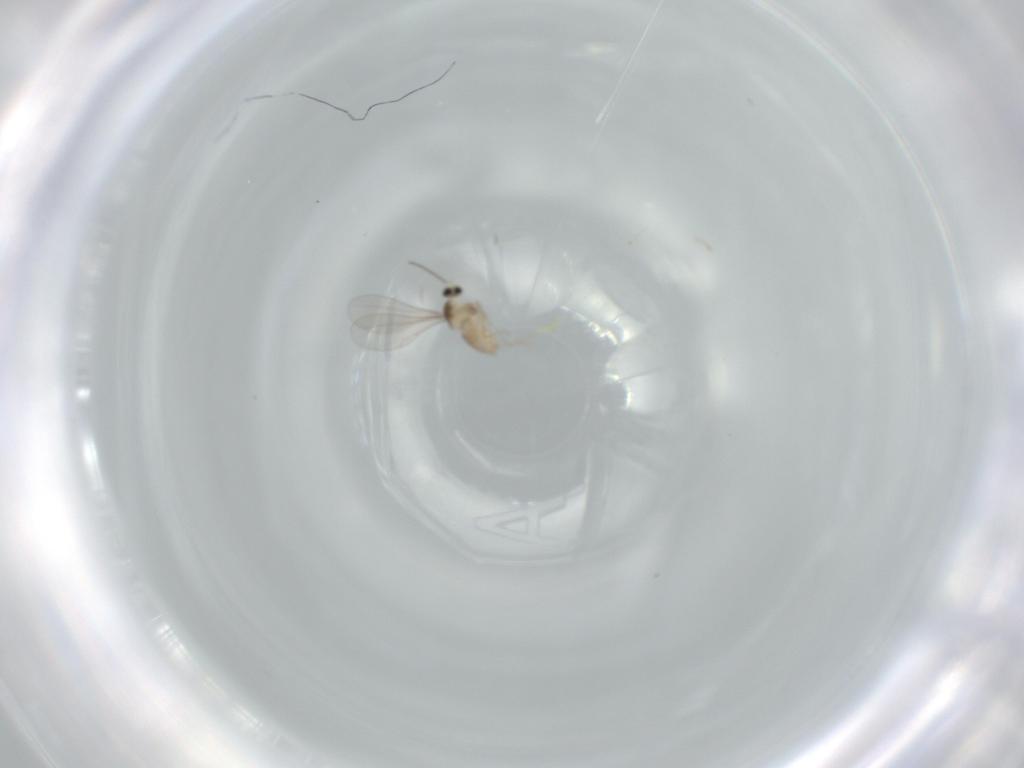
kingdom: Animalia
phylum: Arthropoda
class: Insecta
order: Diptera
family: Cecidomyiidae
